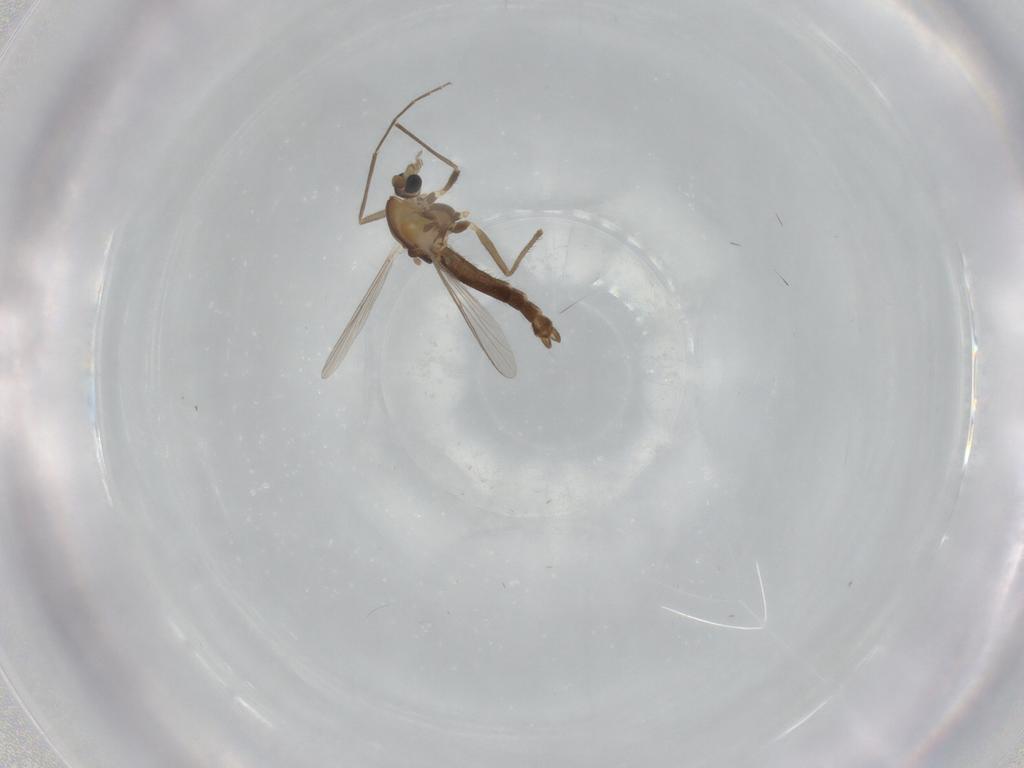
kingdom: Animalia
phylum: Arthropoda
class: Insecta
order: Diptera
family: Chironomidae
